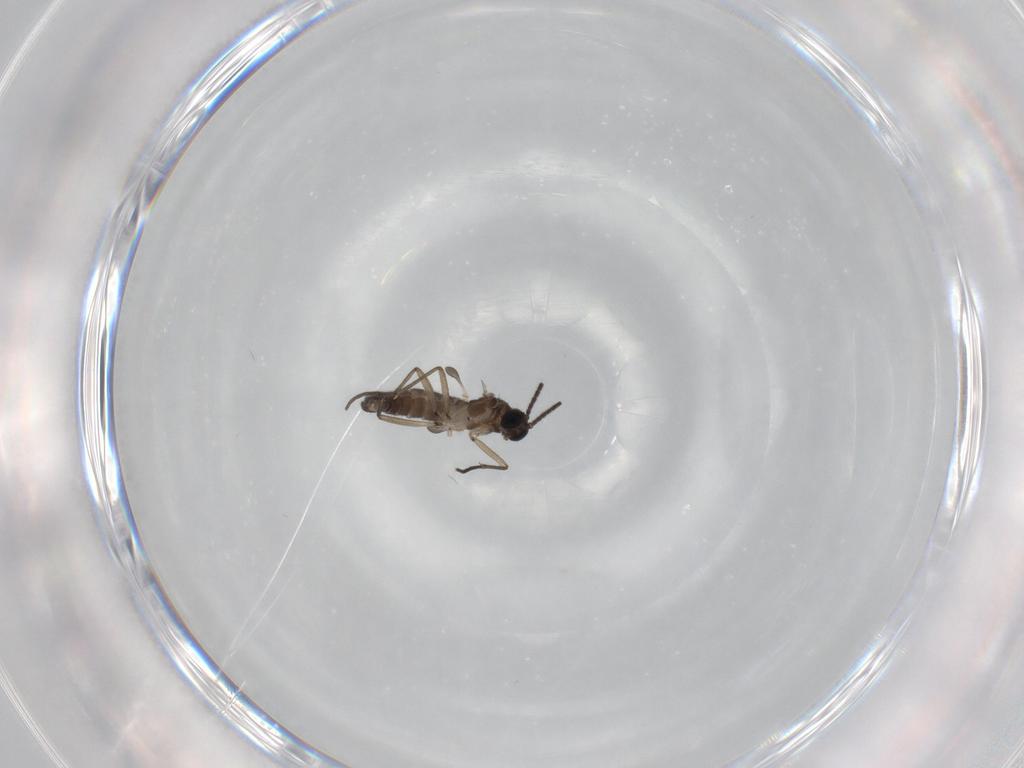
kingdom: Animalia
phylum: Arthropoda
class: Insecta
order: Diptera
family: Sciaridae
